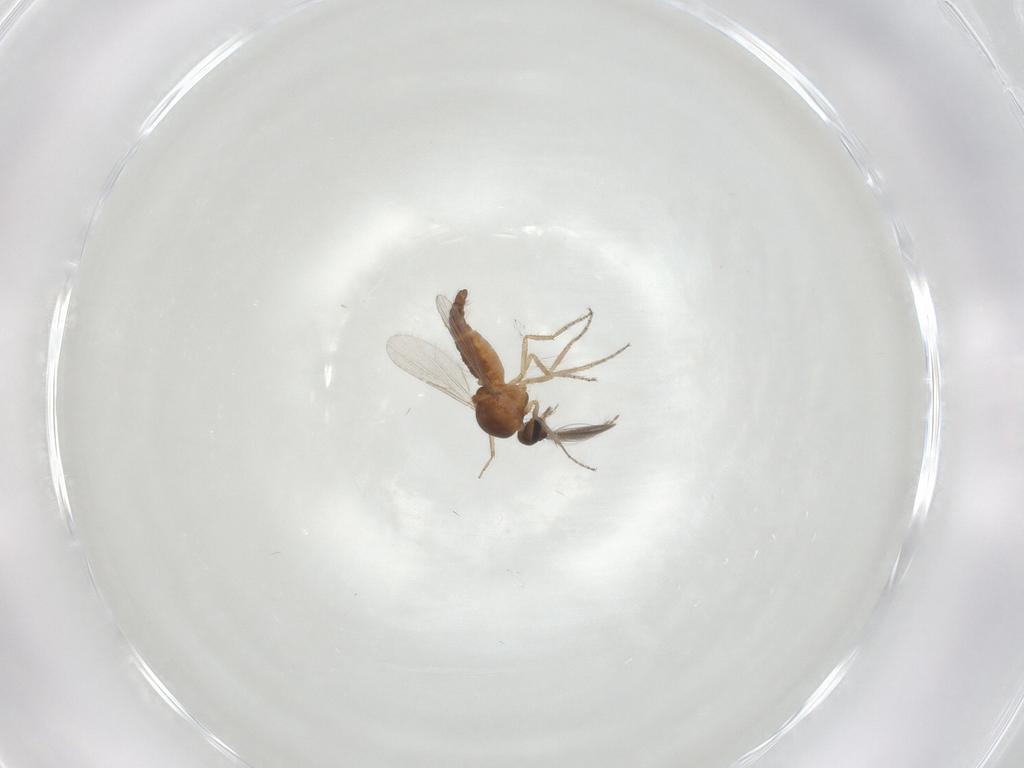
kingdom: Animalia
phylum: Arthropoda
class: Insecta
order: Diptera
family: Ceratopogonidae
